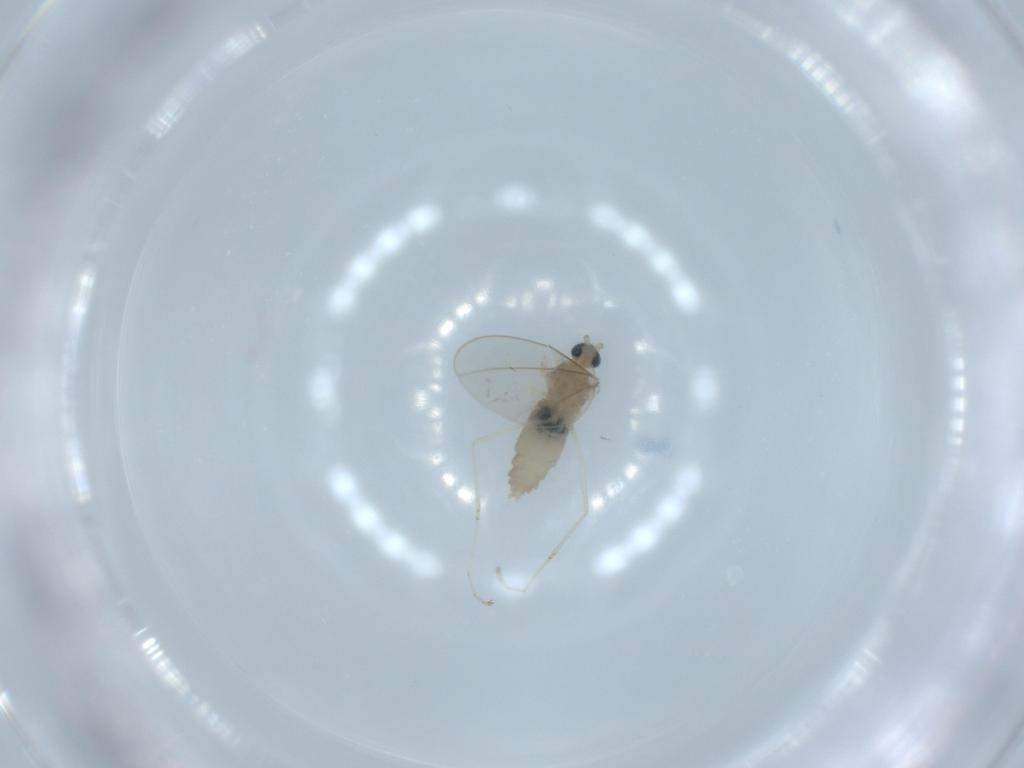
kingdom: Animalia
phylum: Arthropoda
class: Insecta
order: Diptera
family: Cecidomyiidae
